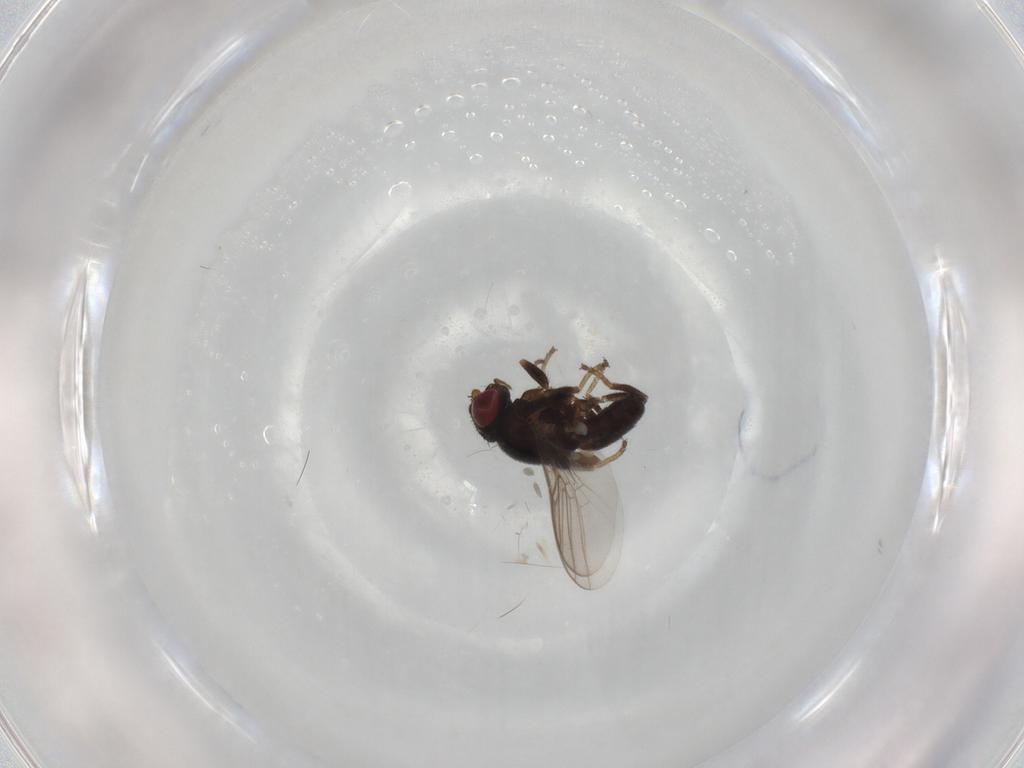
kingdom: Animalia
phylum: Arthropoda
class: Insecta
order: Diptera
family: Chloropidae
